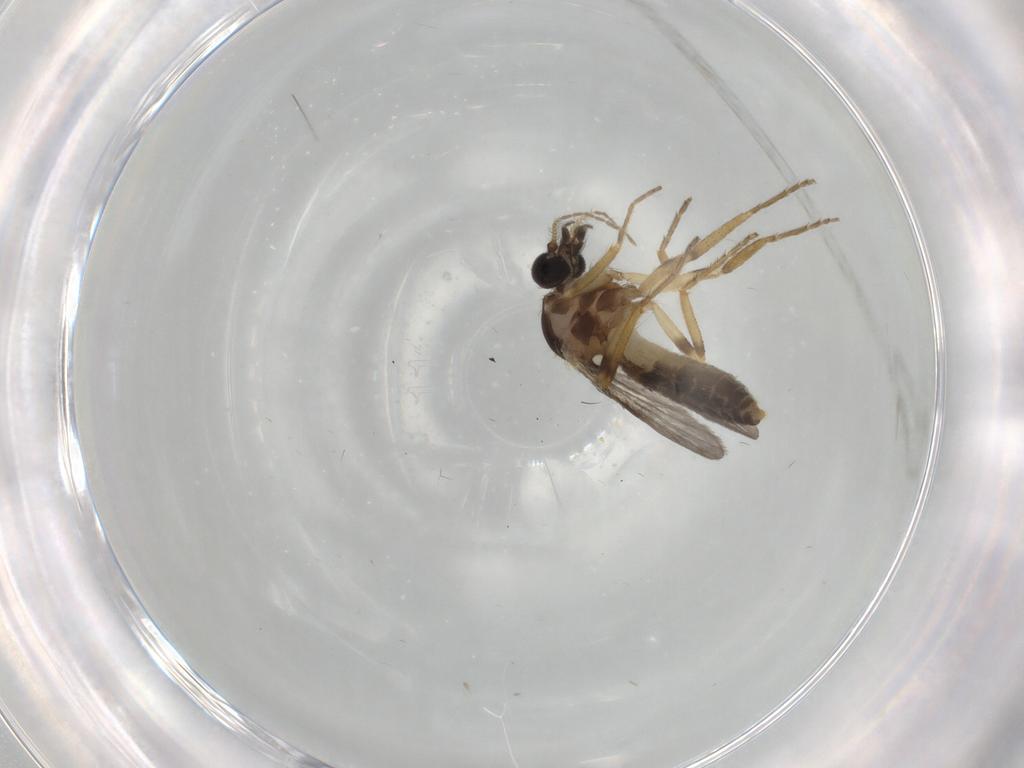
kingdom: Animalia
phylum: Arthropoda
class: Insecta
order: Diptera
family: Ceratopogonidae
